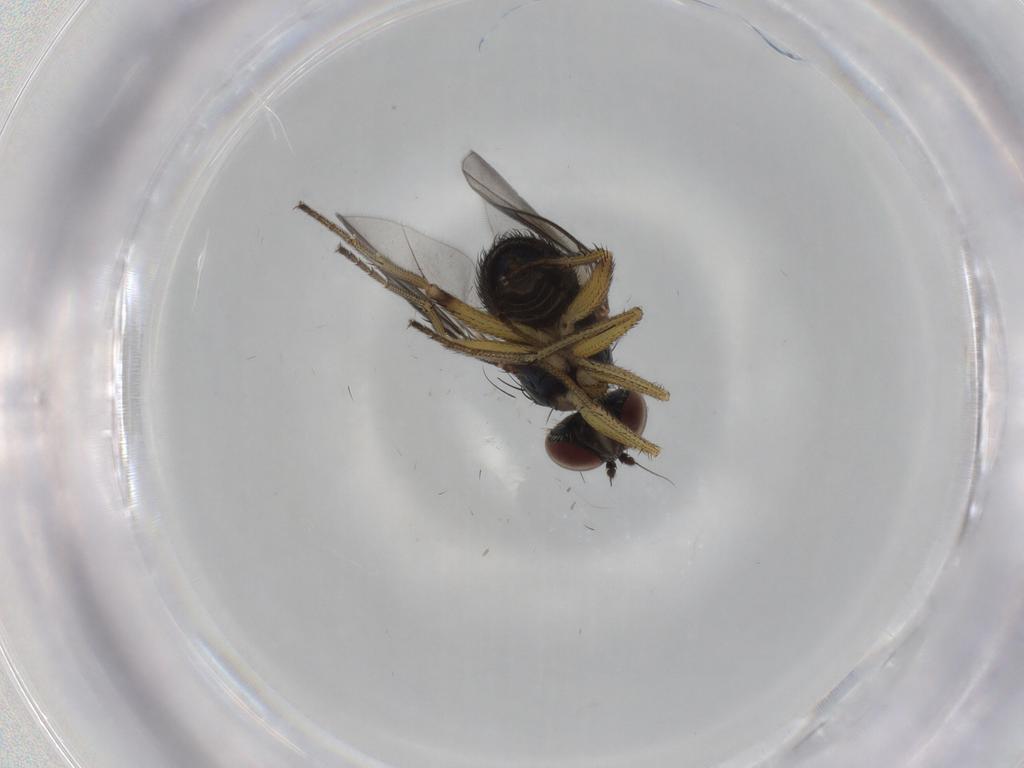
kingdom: Animalia
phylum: Arthropoda
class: Insecta
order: Diptera
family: Dolichopodidae
